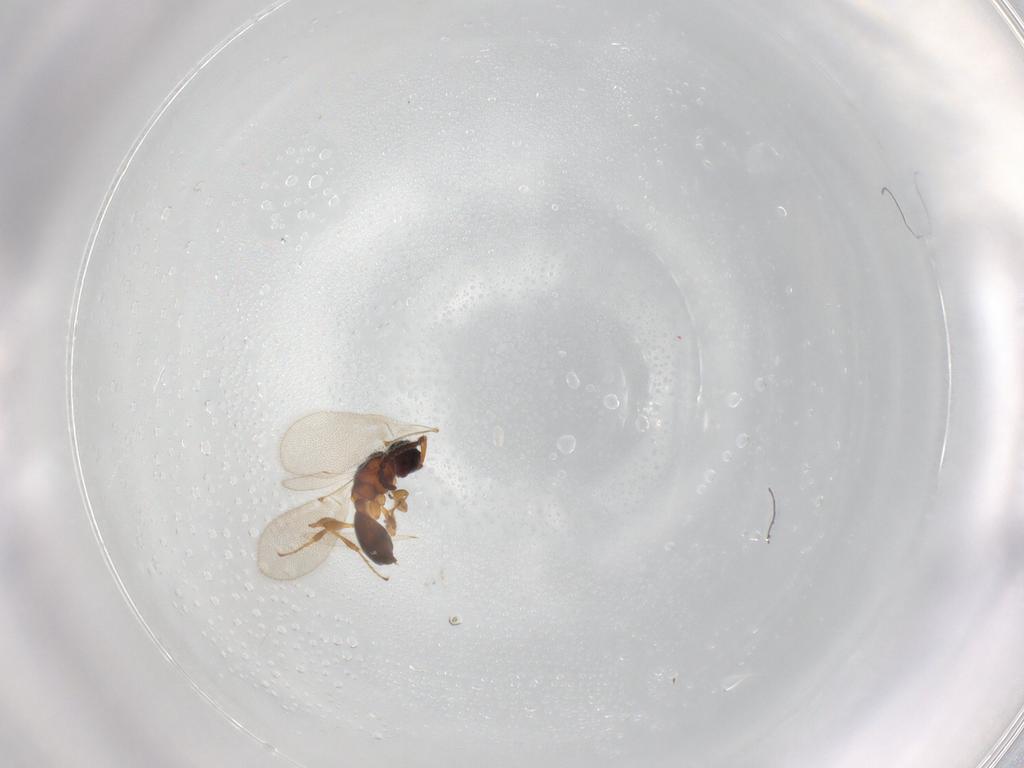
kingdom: Animalia
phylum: Arthropoda
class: Insecta
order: Hymenoptera
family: Diapriidae
